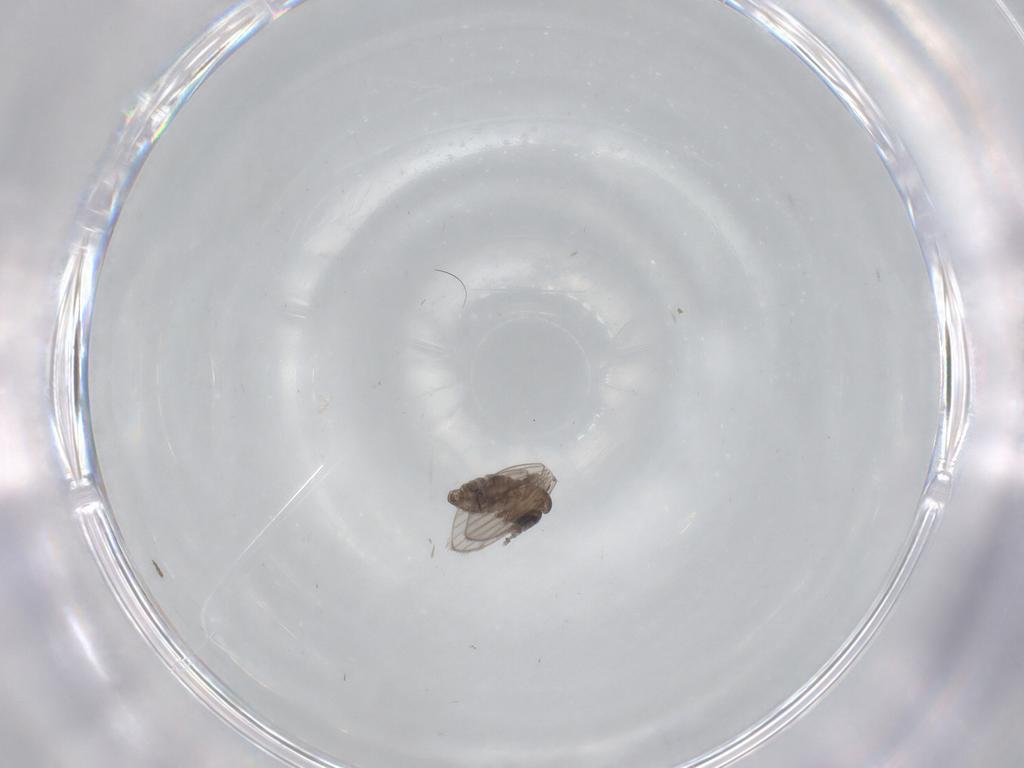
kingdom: Animalia
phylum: Arthropoda
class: Insecta
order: Diptera
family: Psychodidae
